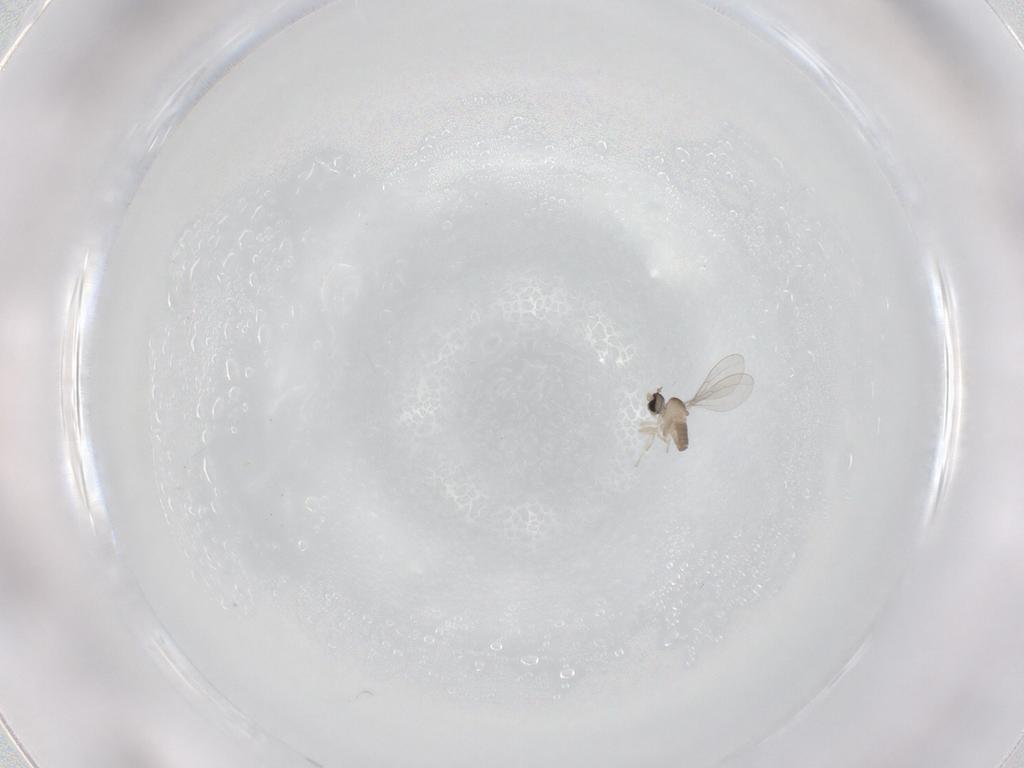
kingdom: Animalia
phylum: Arthropoda
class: Insecta
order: Diptera
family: Cecidomyiidae
